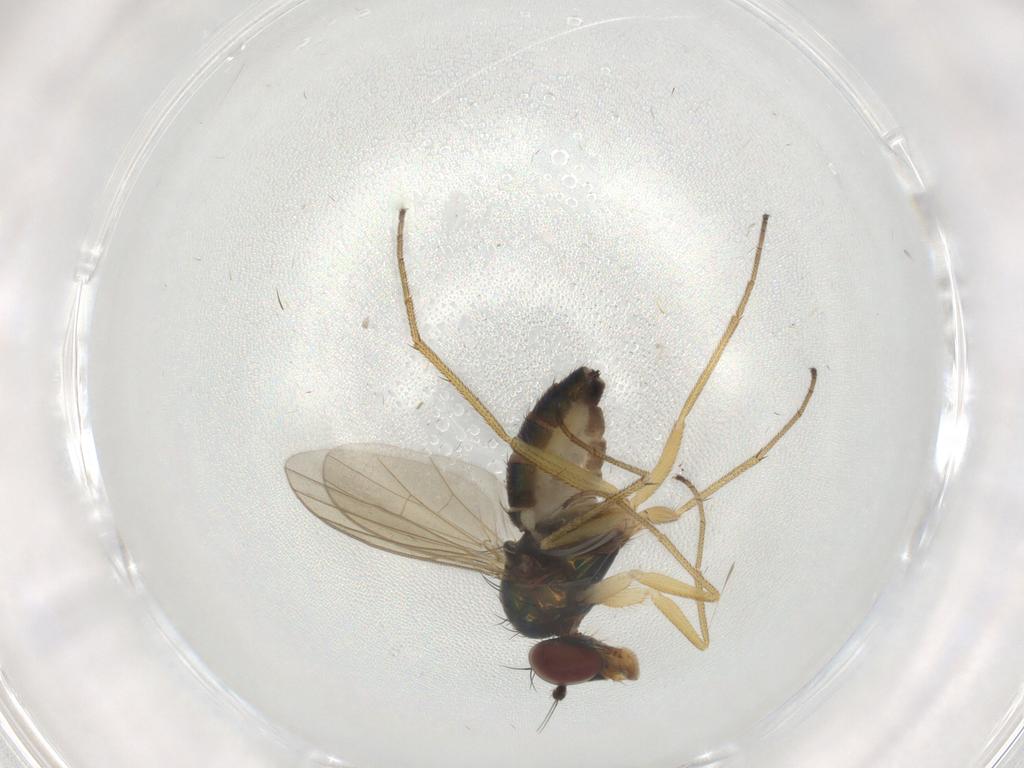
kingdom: Animalia
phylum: Arthropoda
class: Insecta
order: Diptera
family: Dolichopodidae
